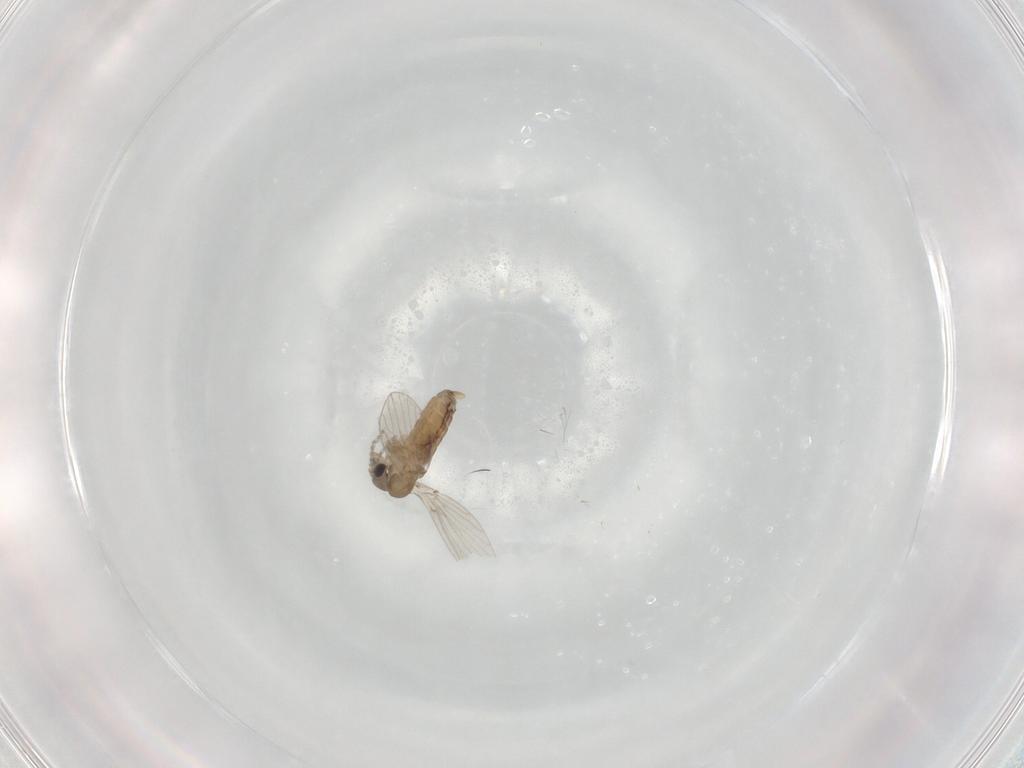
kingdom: Animalia
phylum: Arthropoda
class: Insecta
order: Diptera
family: Sciaridae
